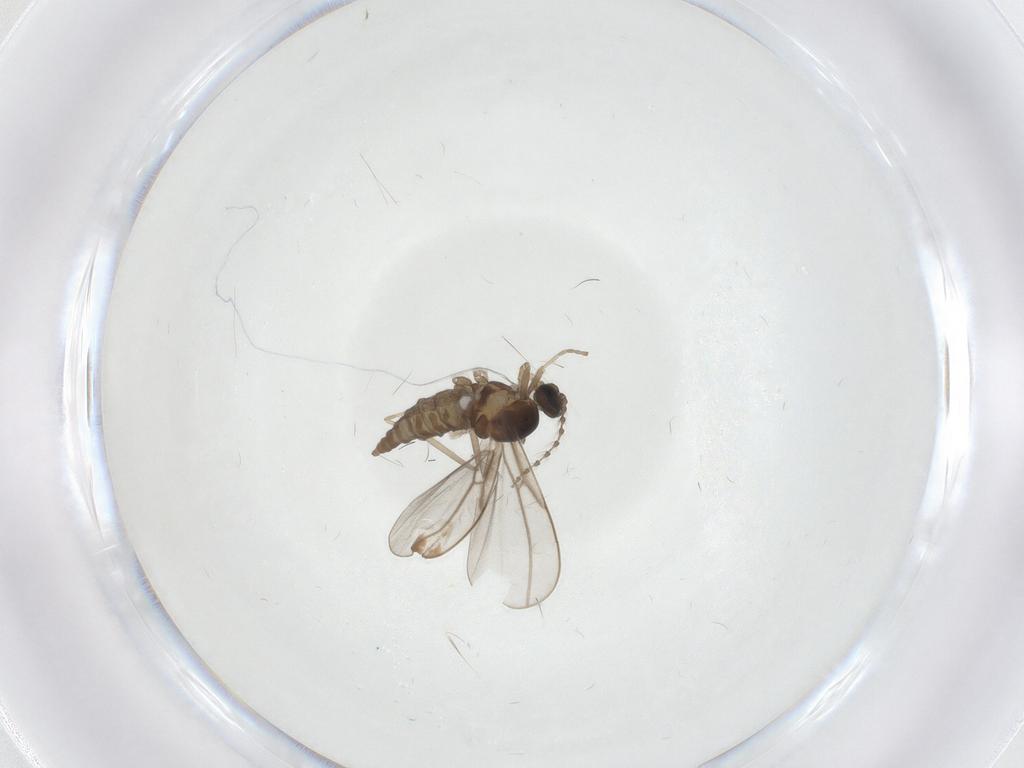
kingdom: Animalia
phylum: Arthropoda
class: Insecta
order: Diptera
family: Cecidomyiidae
